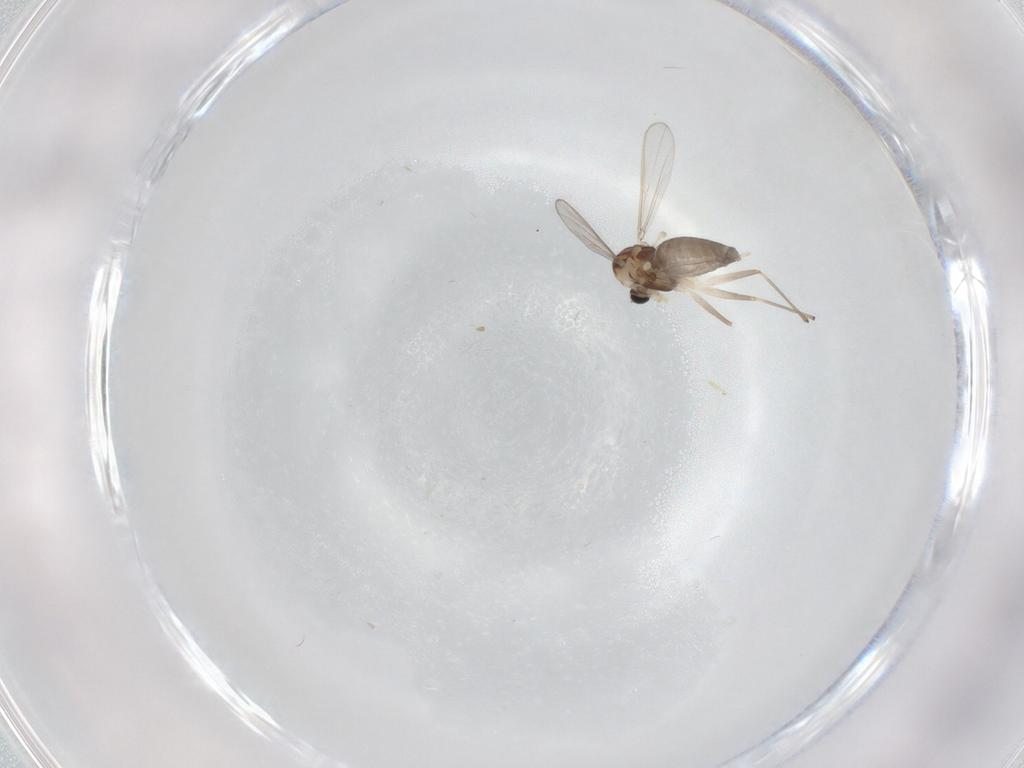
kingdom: Animalia
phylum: Arthropoda
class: Insecta
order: Diptera
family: Chironomidae
